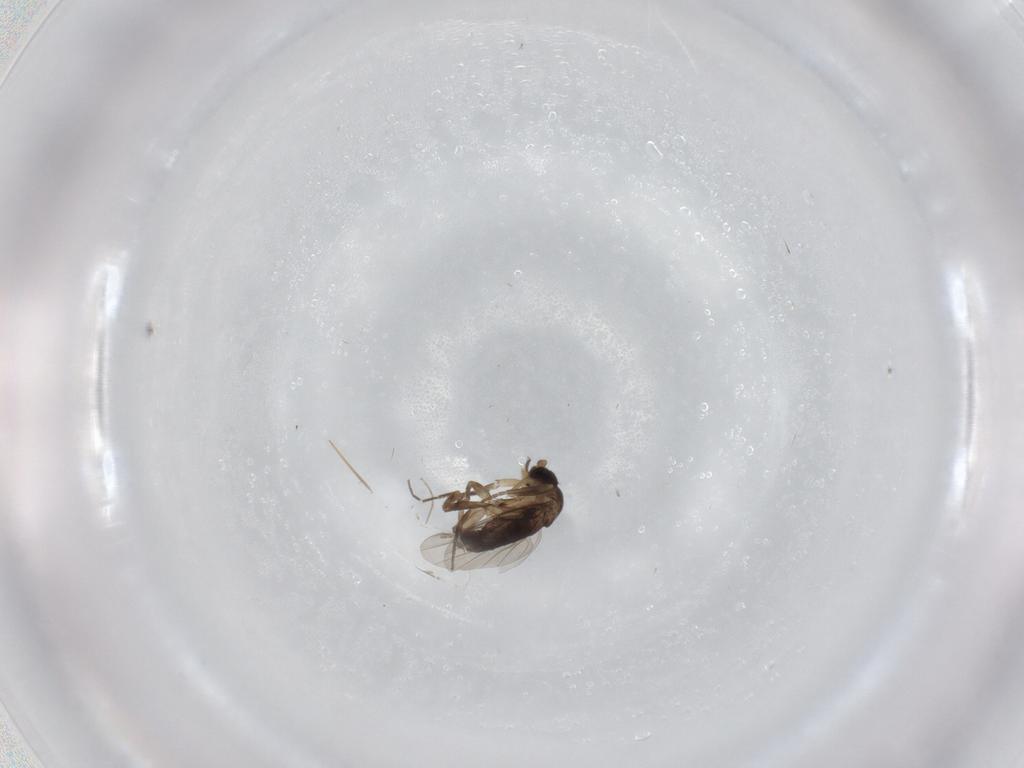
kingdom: Animalia
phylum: Arthropoda
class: Insecta
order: Diptera
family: Phoridae
